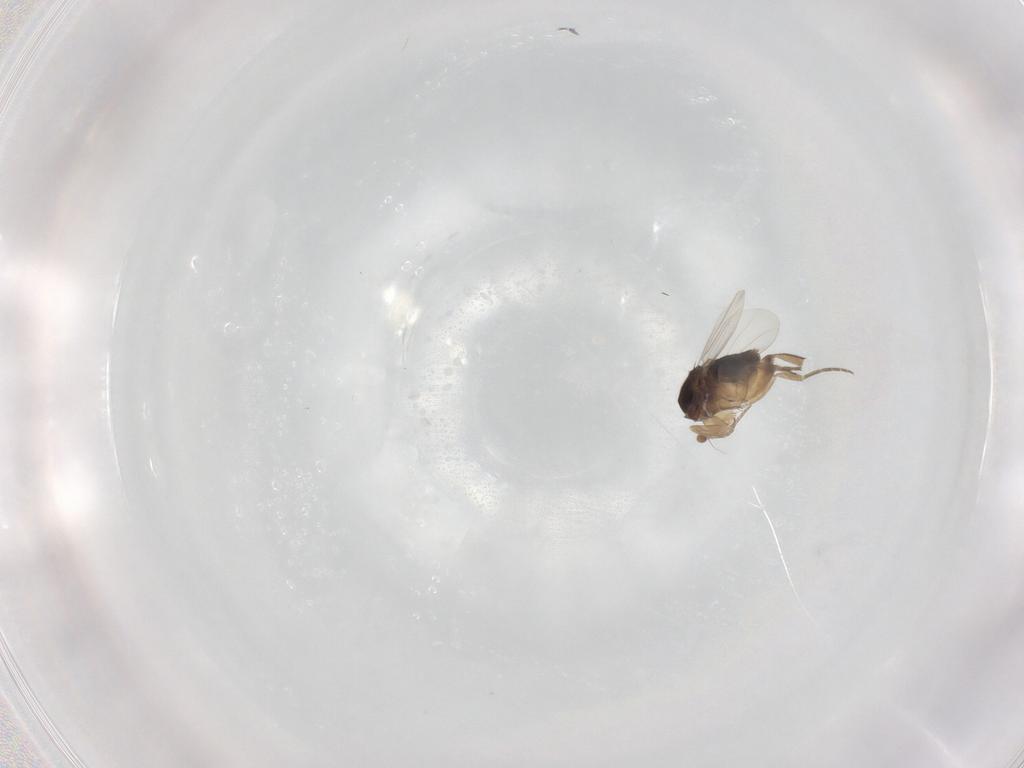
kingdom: Animalia
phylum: Arthropoda
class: Insecta
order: Diptera
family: Phoridae
